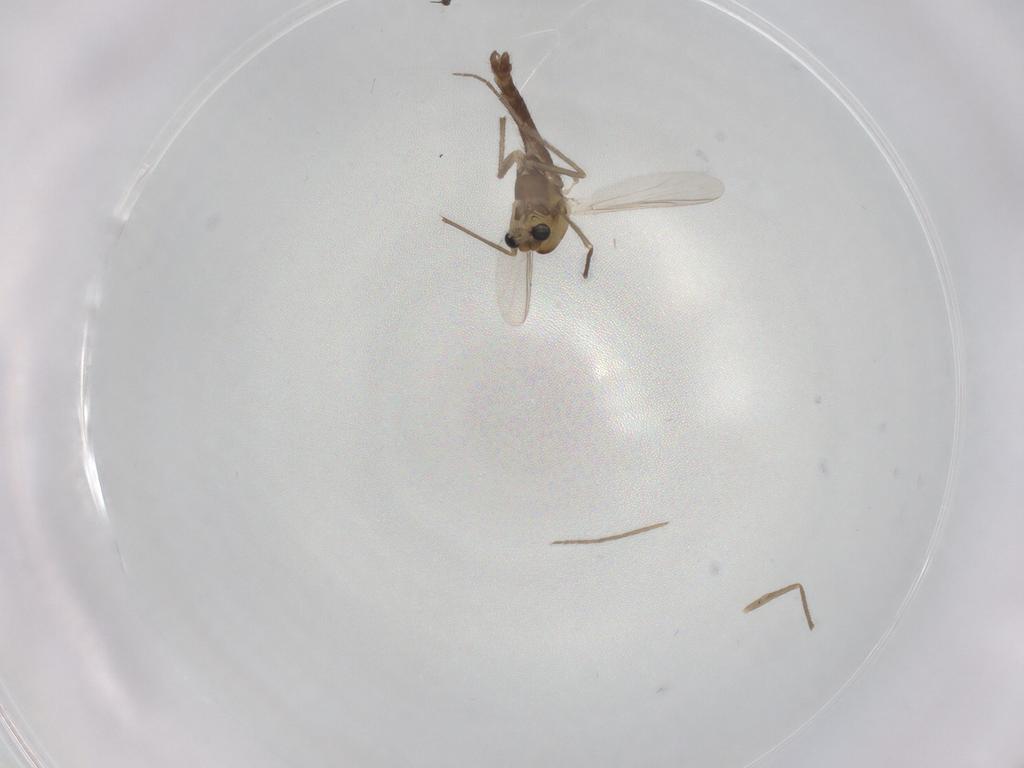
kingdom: Animalia
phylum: Arthropoda
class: Insecta
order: Diptera
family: Chironomidae
